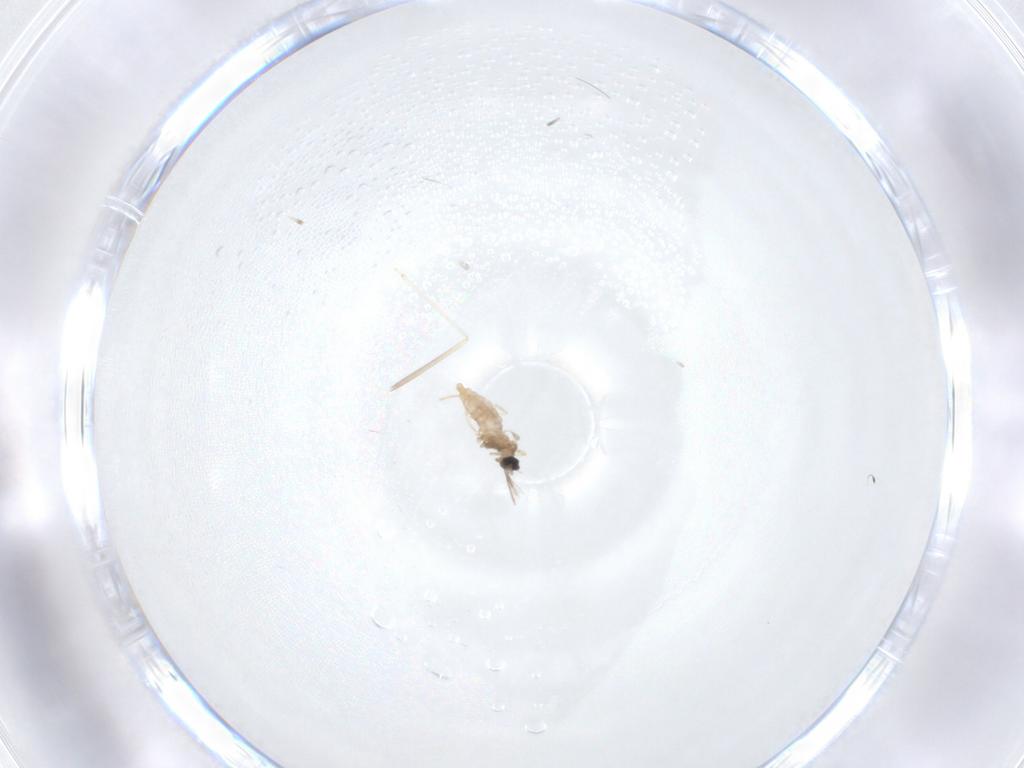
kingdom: Animalia
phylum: Arthropoda
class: Insecta
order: Diptera
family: Cecidomyiidae
